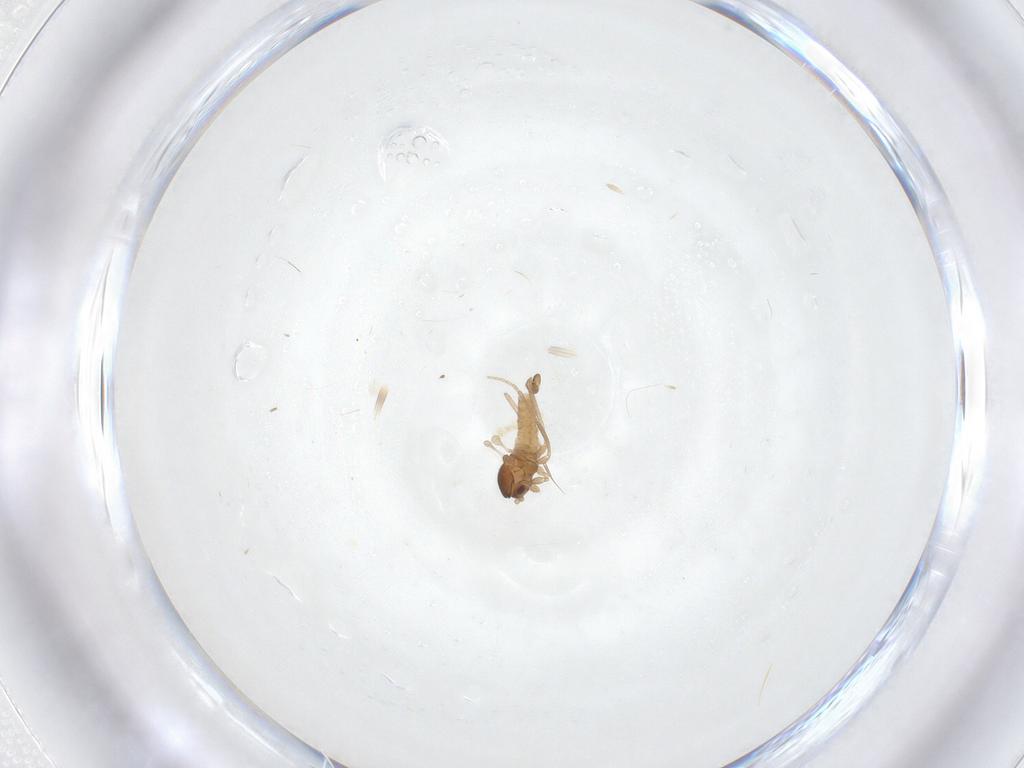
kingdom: Animalia
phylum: Arthropoda
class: Insecta
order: Diptera
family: Cecidomyiidae
